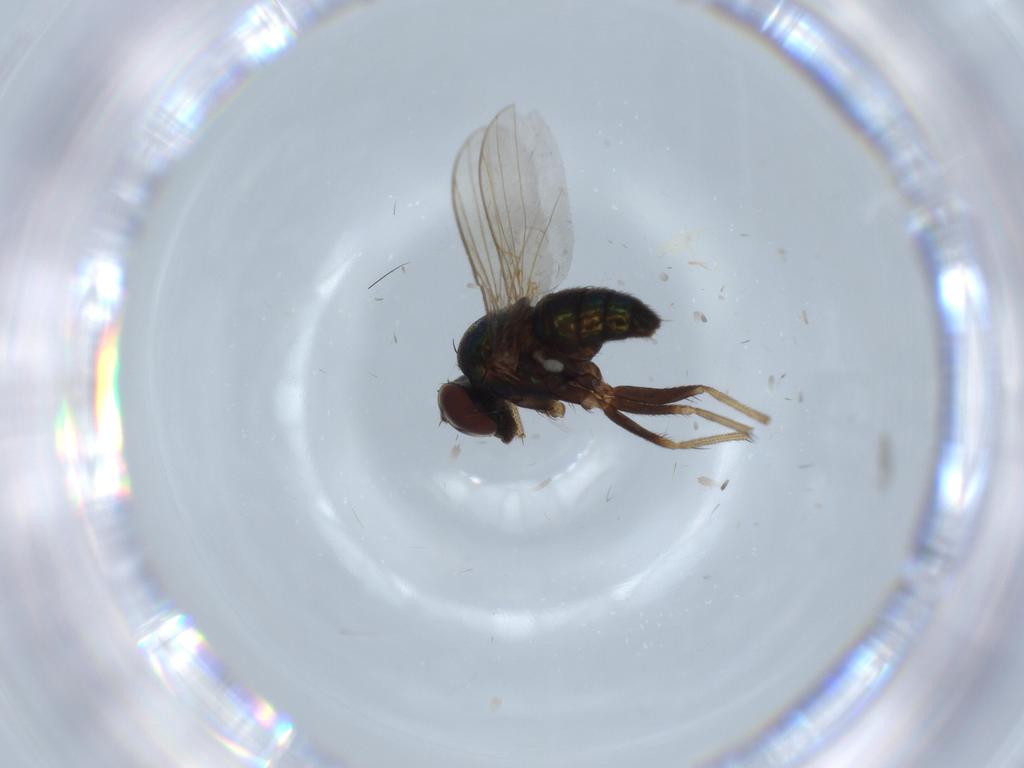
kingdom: Animalia
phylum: Arthropoda
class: Insecta
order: Diptera
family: Dolichopodidae
